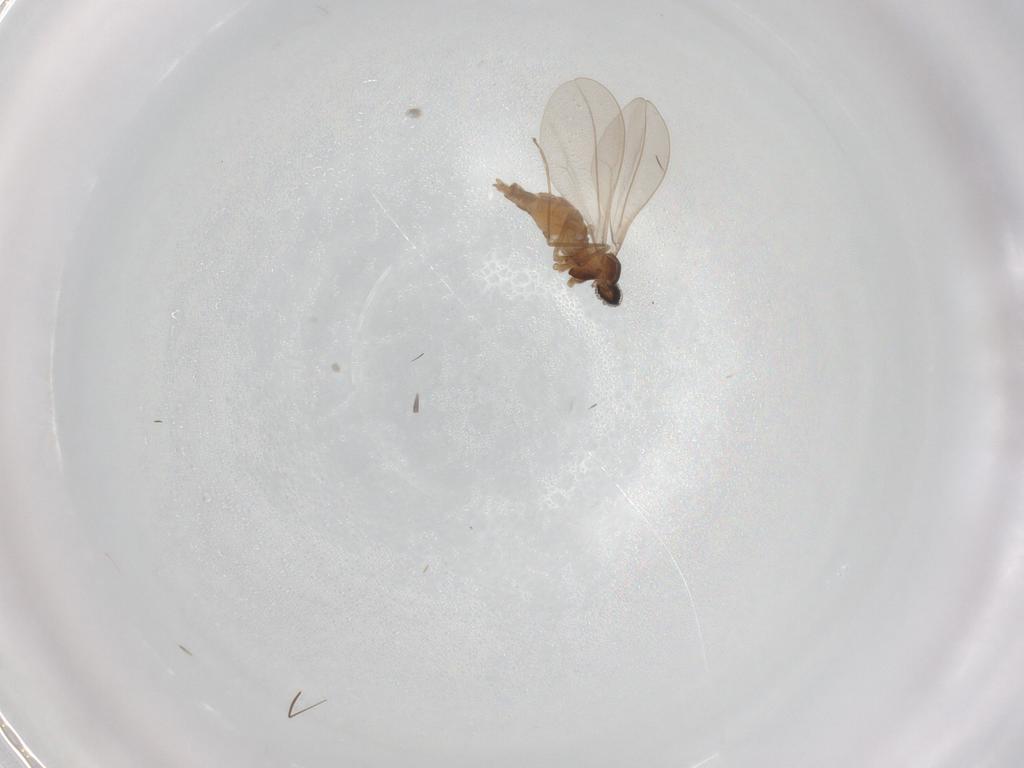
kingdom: Animalia
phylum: Arthropoda
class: Insecta
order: Diptera
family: Cecidomyiidae
